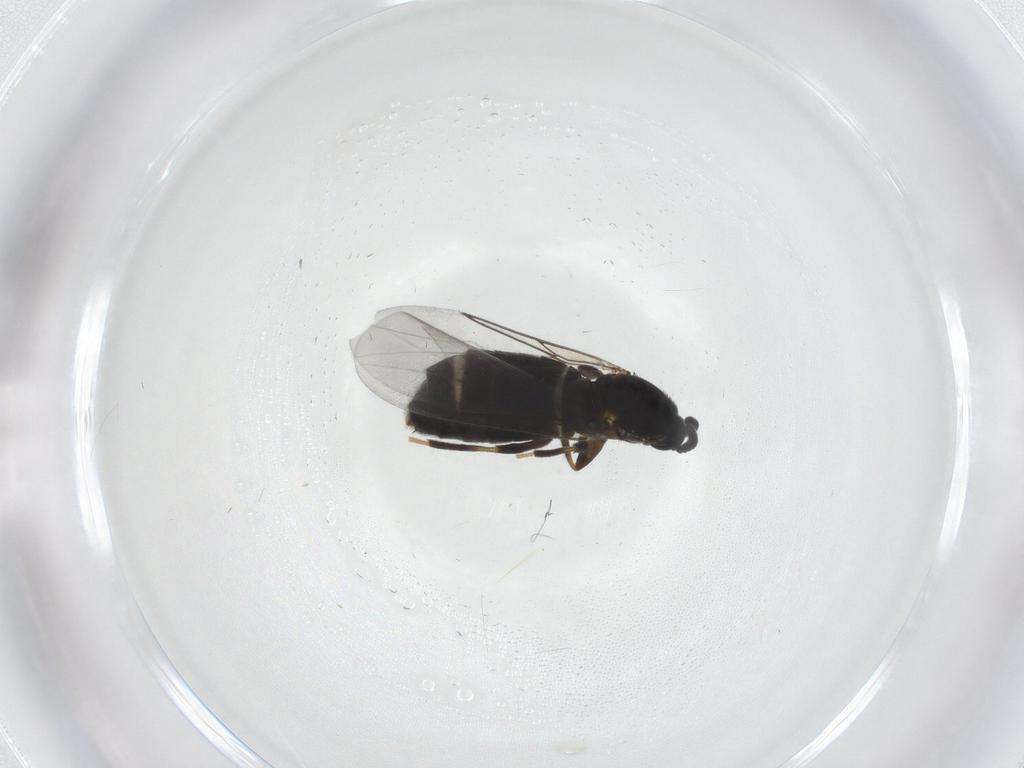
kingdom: Animalia
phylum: Arthropoda
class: Insecta
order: Diptera
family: Scatopsidae
